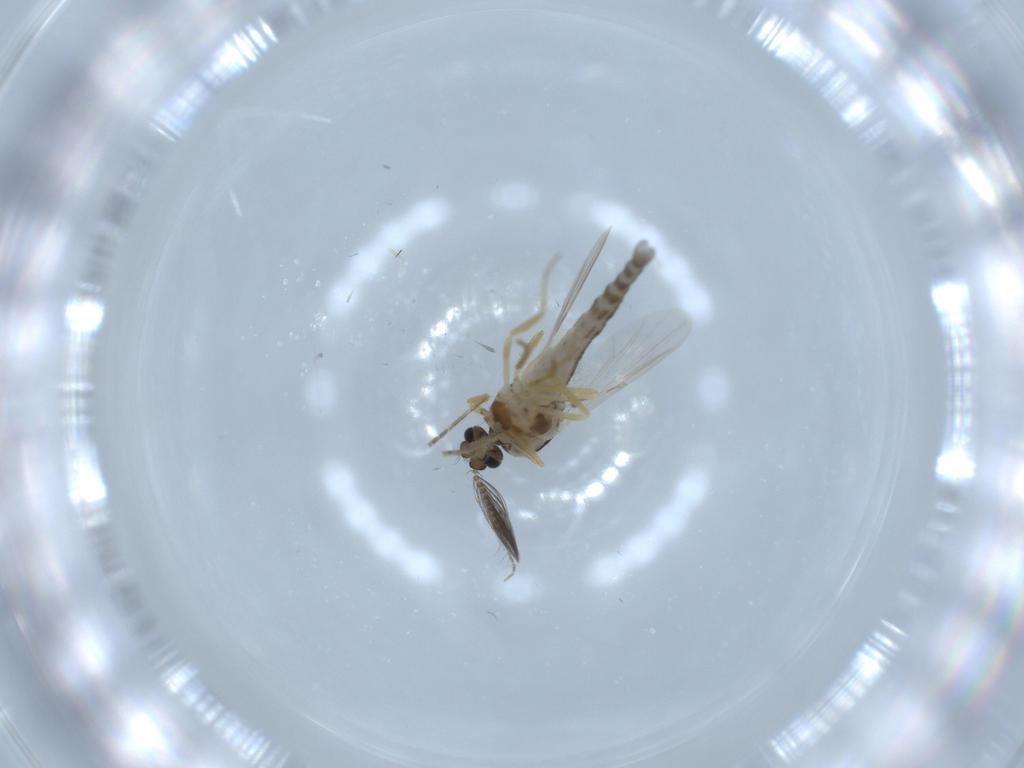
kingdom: Animalia
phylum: Arthropoda
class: Insecta
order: Diptera
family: Ceratopogonidae
